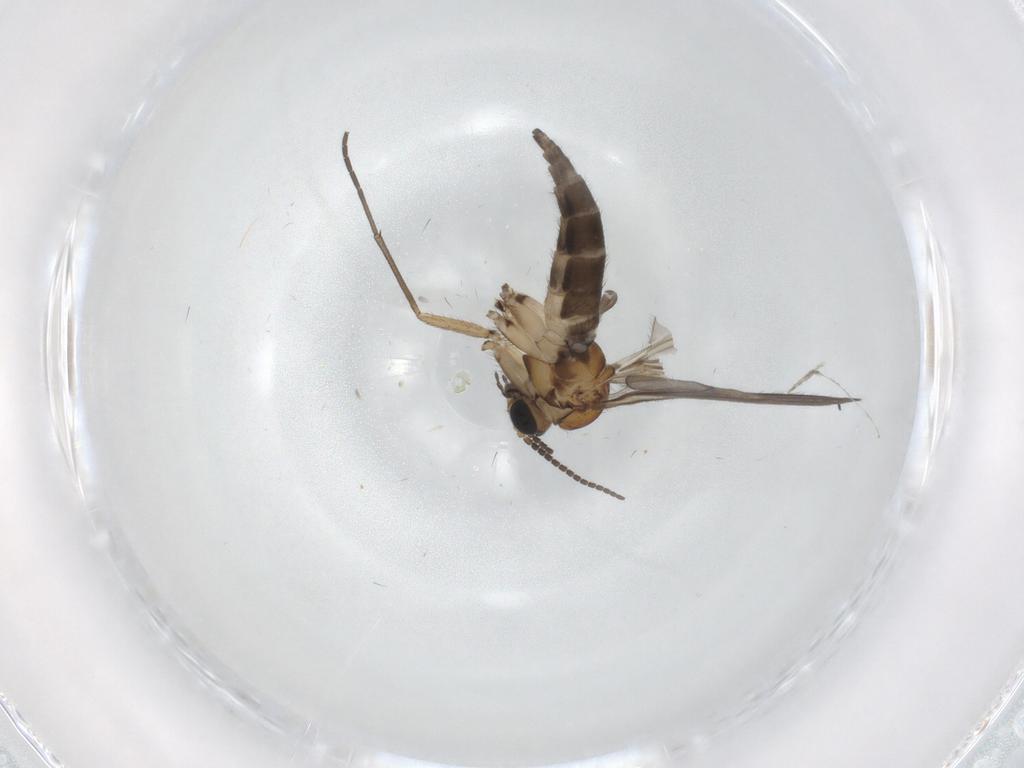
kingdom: Animalia
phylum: Arthropoda
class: Insecta
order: Diptera
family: Sciaridae
